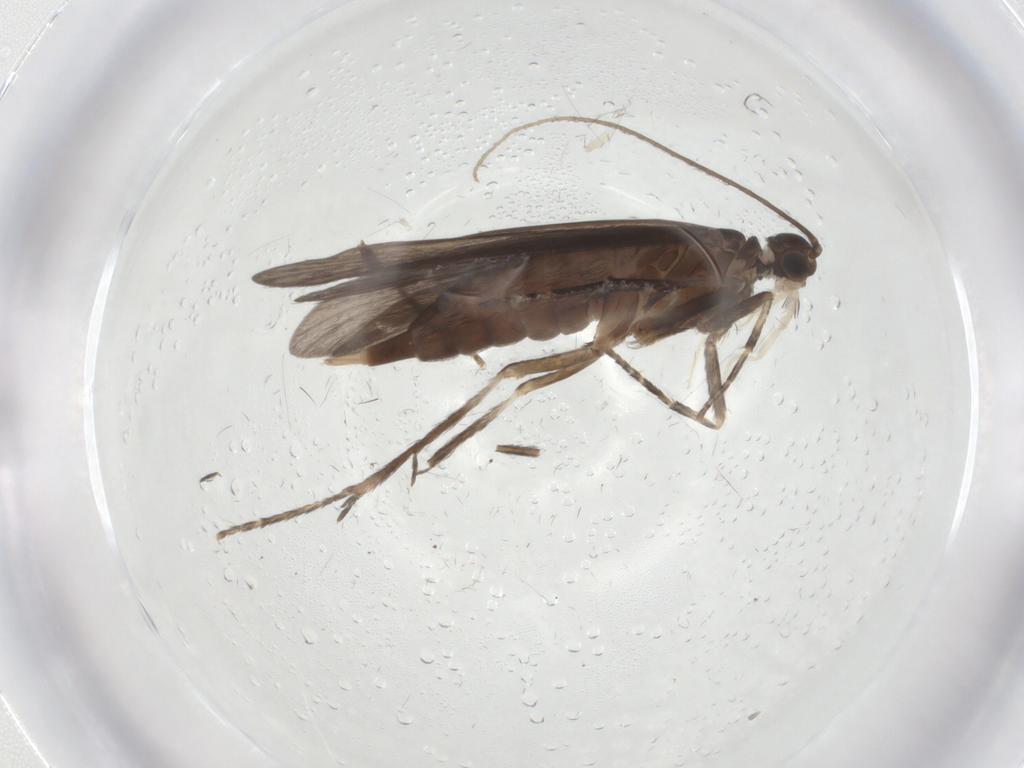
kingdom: Animalia
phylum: Arthropoda
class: Insecta
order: Trichoptera
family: Xiphocentronidae
